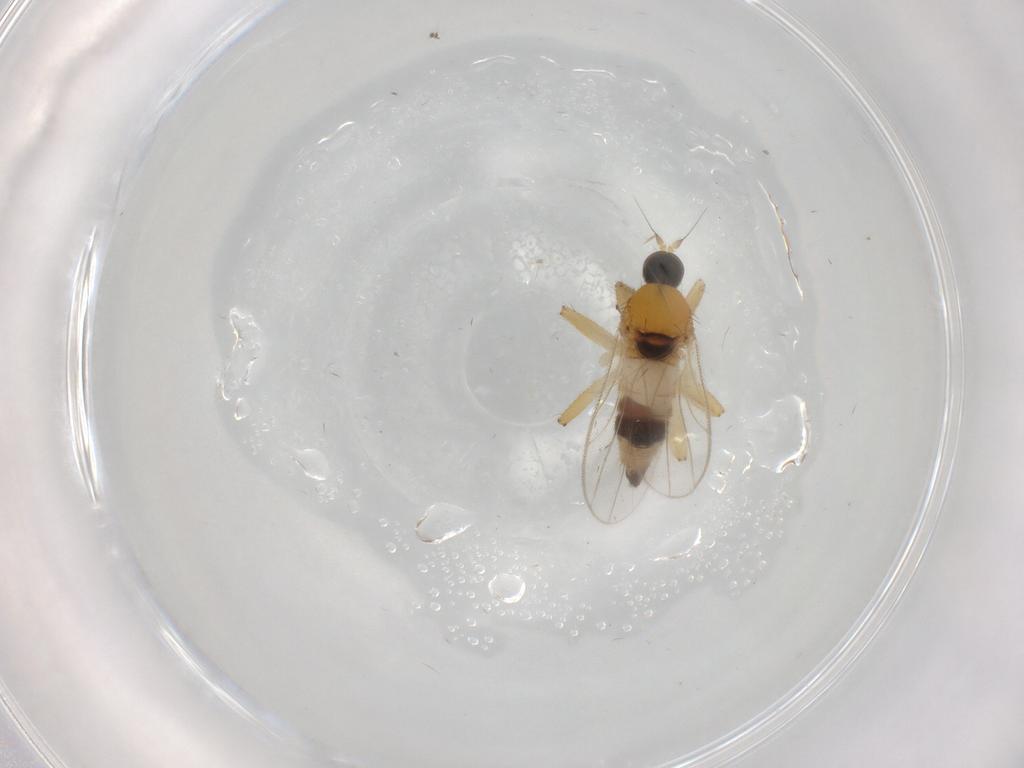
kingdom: Animalia
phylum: Arthropoda
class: Insecta
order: Diptera
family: Hybotidae
